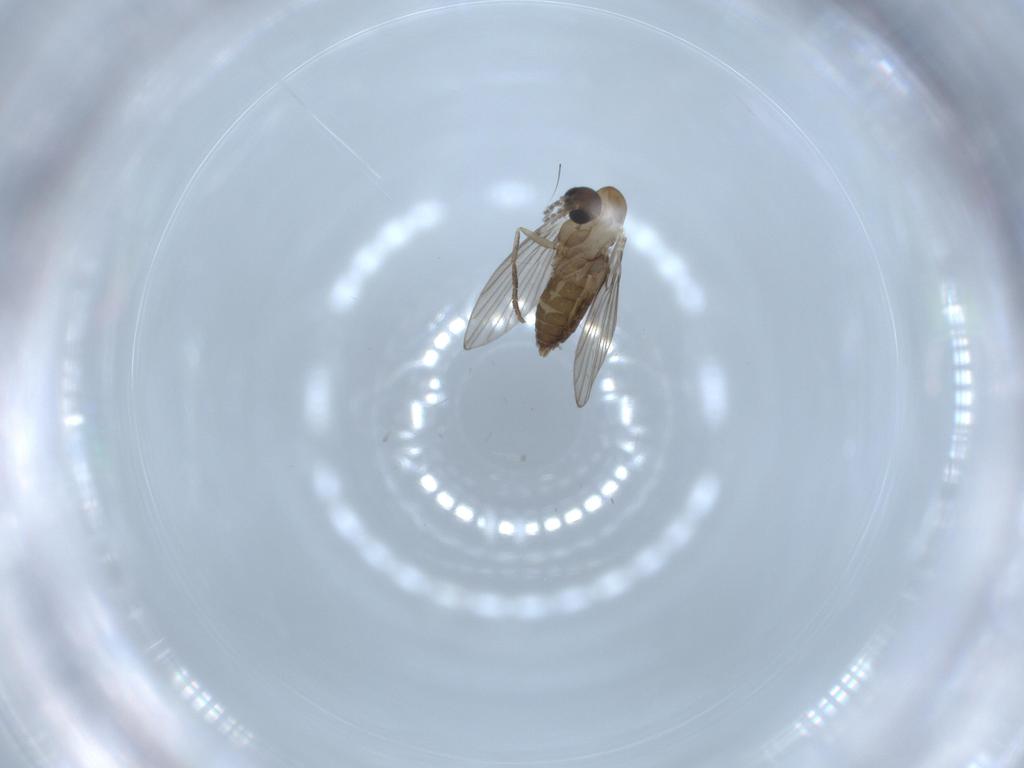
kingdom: Animalia
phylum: Arthropoda
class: Insecta
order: Diptera
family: Psychodidae
